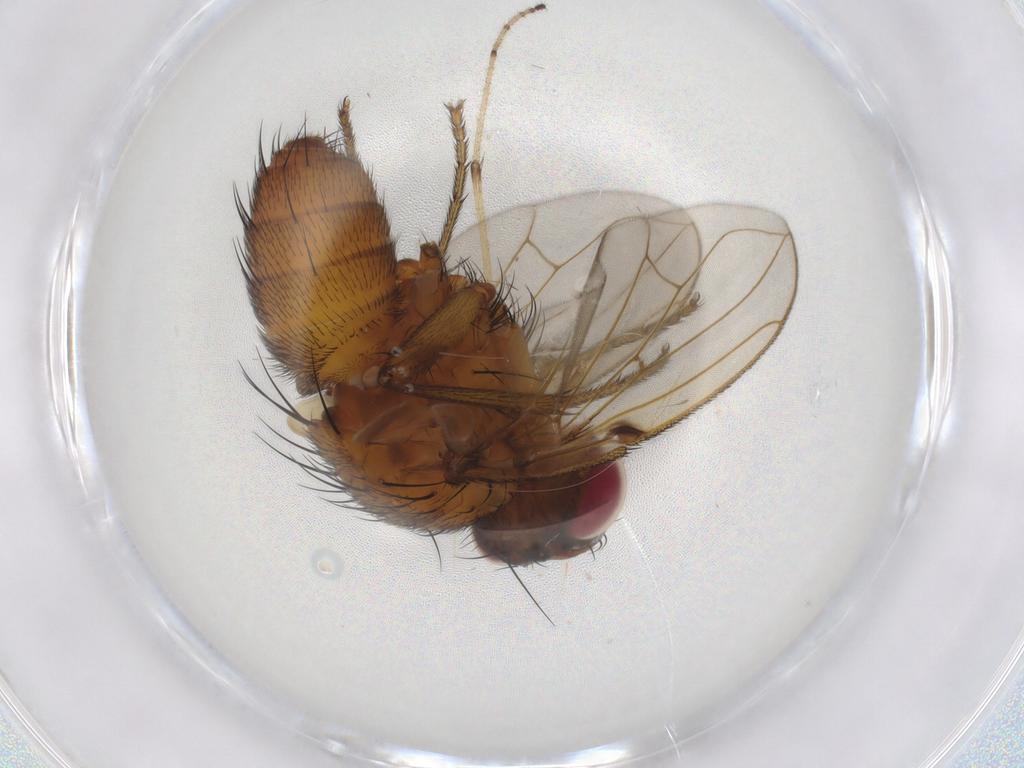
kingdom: Animalia
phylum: Arthropoda
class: Insecta
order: Diptera
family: Tachinidae
